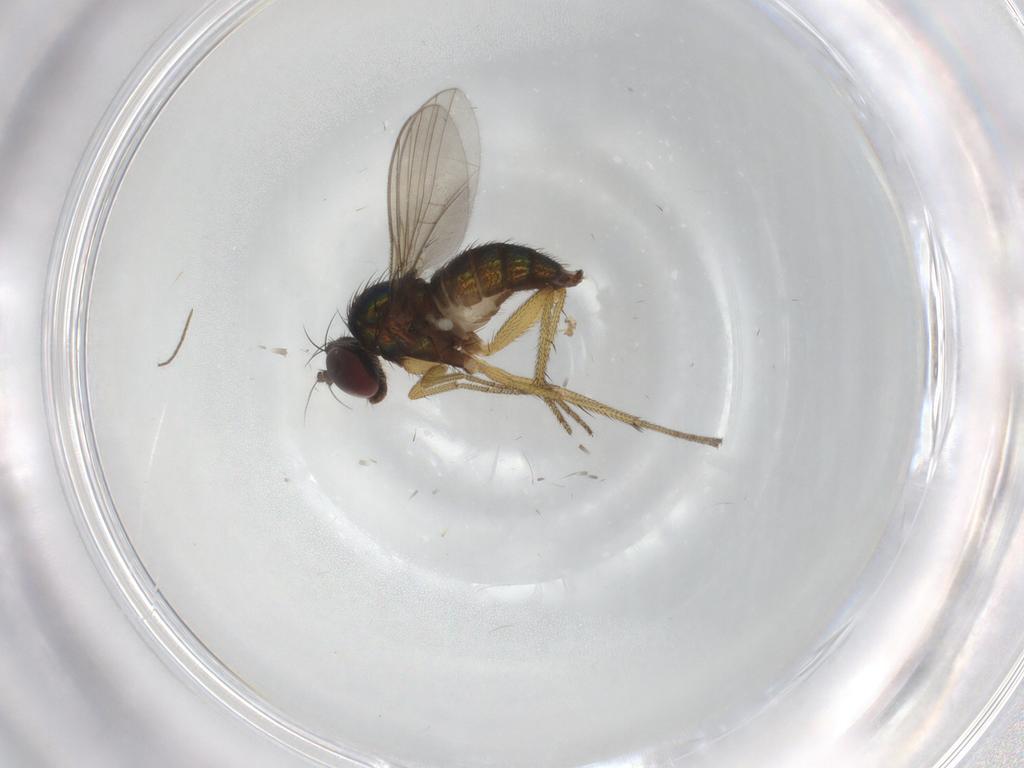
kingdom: Animalia
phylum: Arthropoda
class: Insecta
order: Diptera
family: Dolichopodidae
